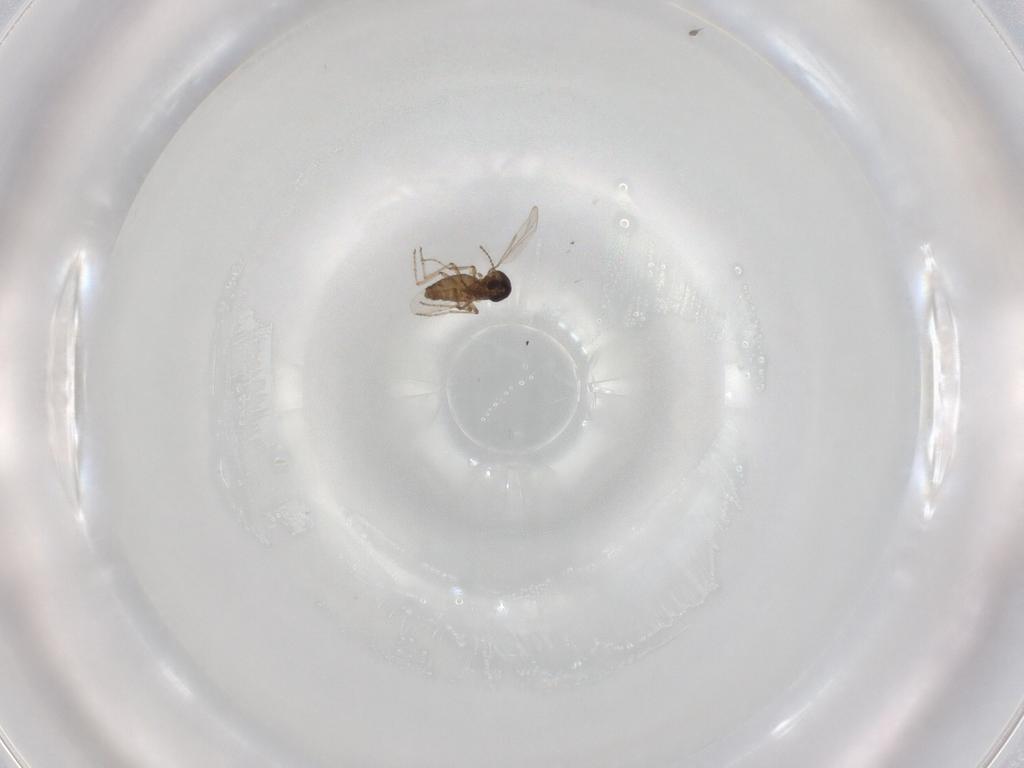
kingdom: Animalia
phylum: Arthropoda
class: Insecta
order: Diptera
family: Ceratopogonidae
